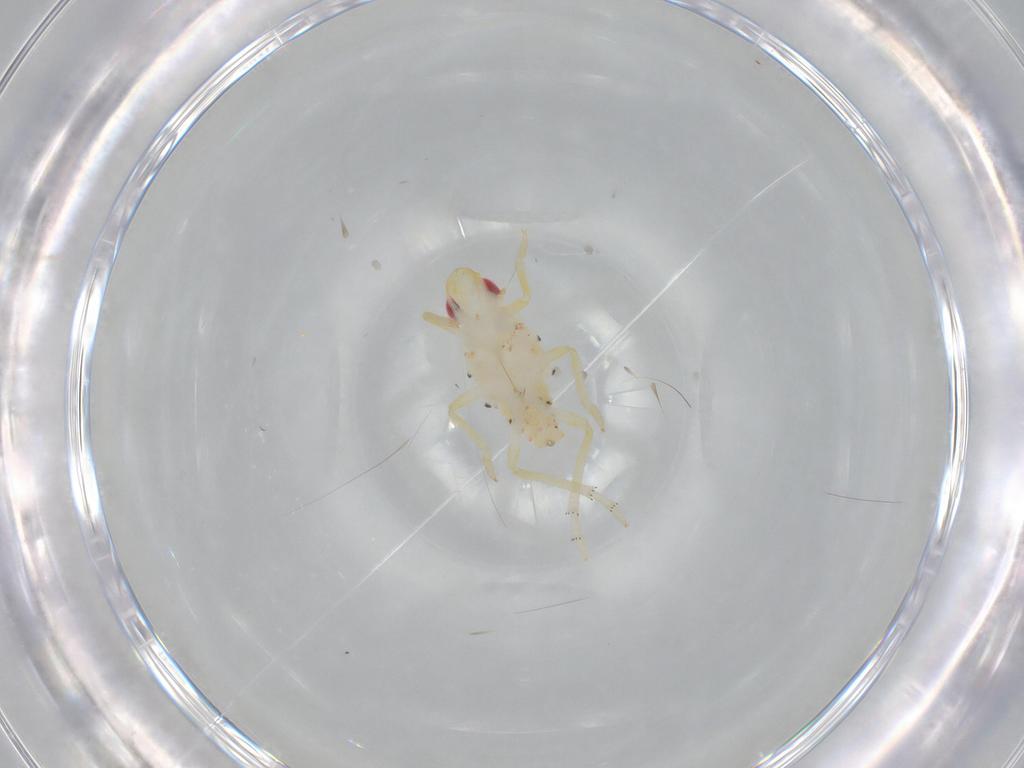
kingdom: Animalia
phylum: Arthropoda
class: Insecta
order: Hemiptera
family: Tropiduchidae
